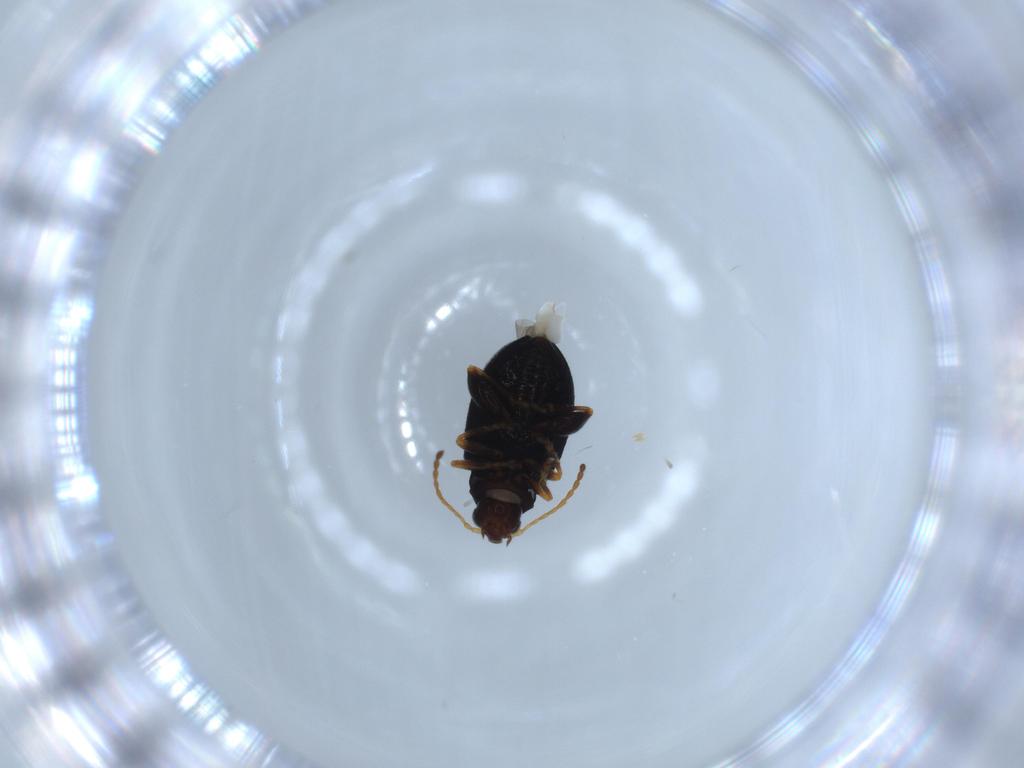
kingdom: Animalia
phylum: Arthropoda
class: Insecta
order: Coleoptera
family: Chrysomelidae
